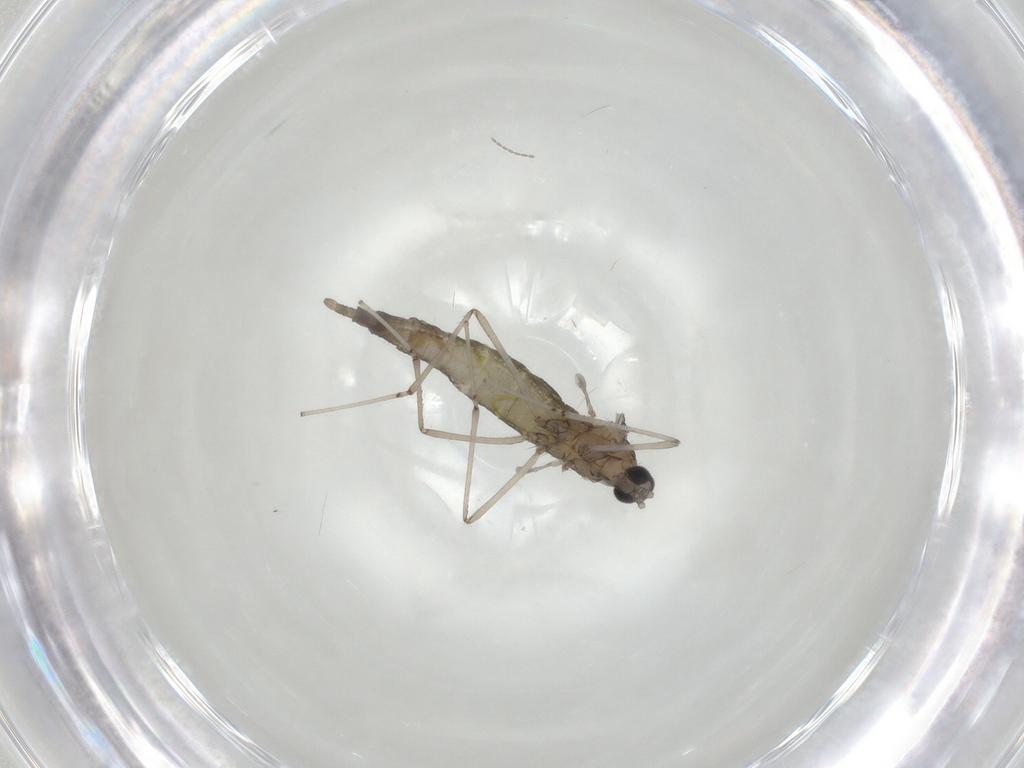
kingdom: Animalia
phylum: Arthropoda
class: Insecta
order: Diptera
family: Cecidomyiidae
